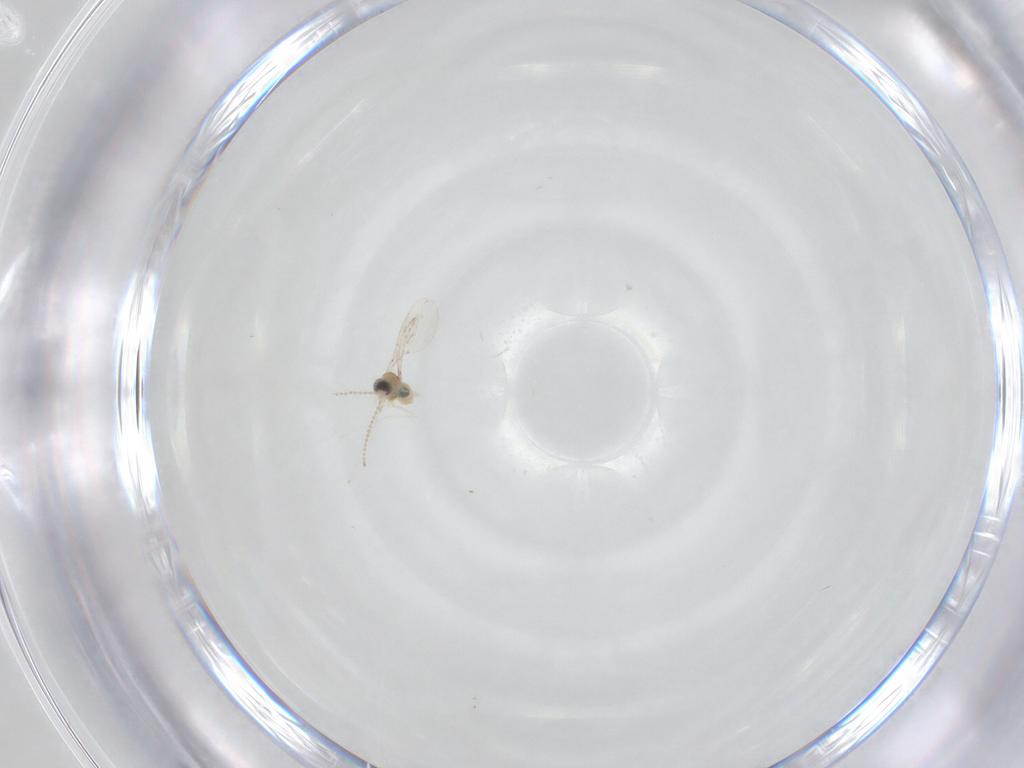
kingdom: Animalia
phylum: Arthropoda
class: Insecta
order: Diptera
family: Cecidomyiidae
